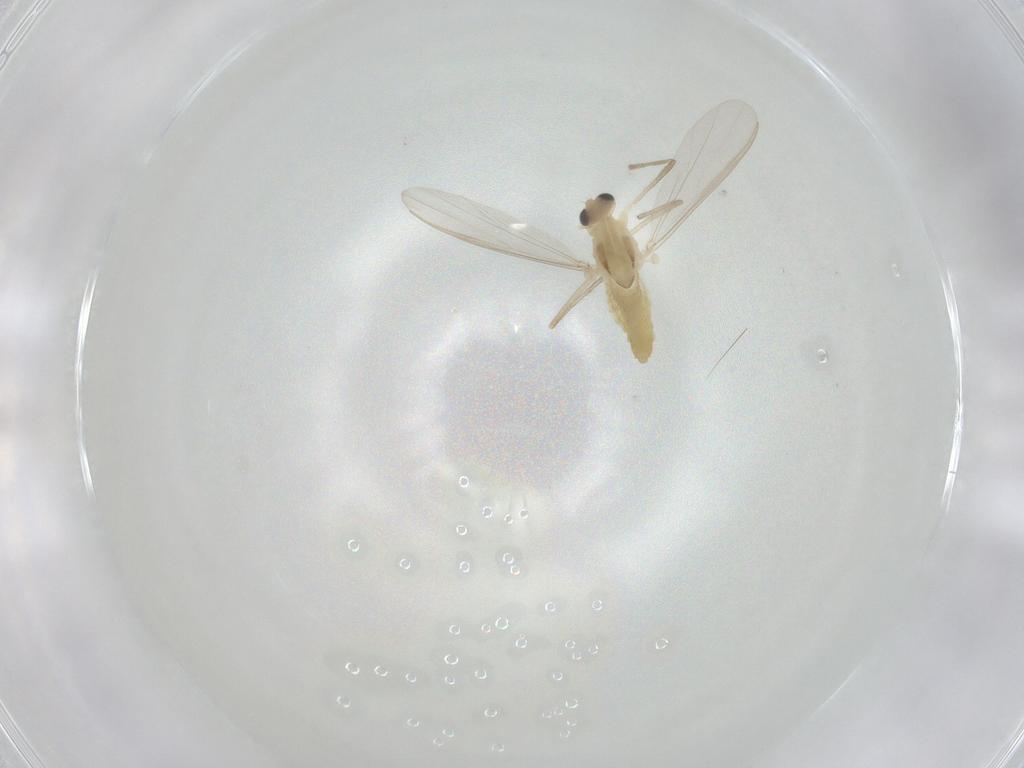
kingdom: Animalia
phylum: Arthropoda
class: Insecta
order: Diptera
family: Chironomidae
